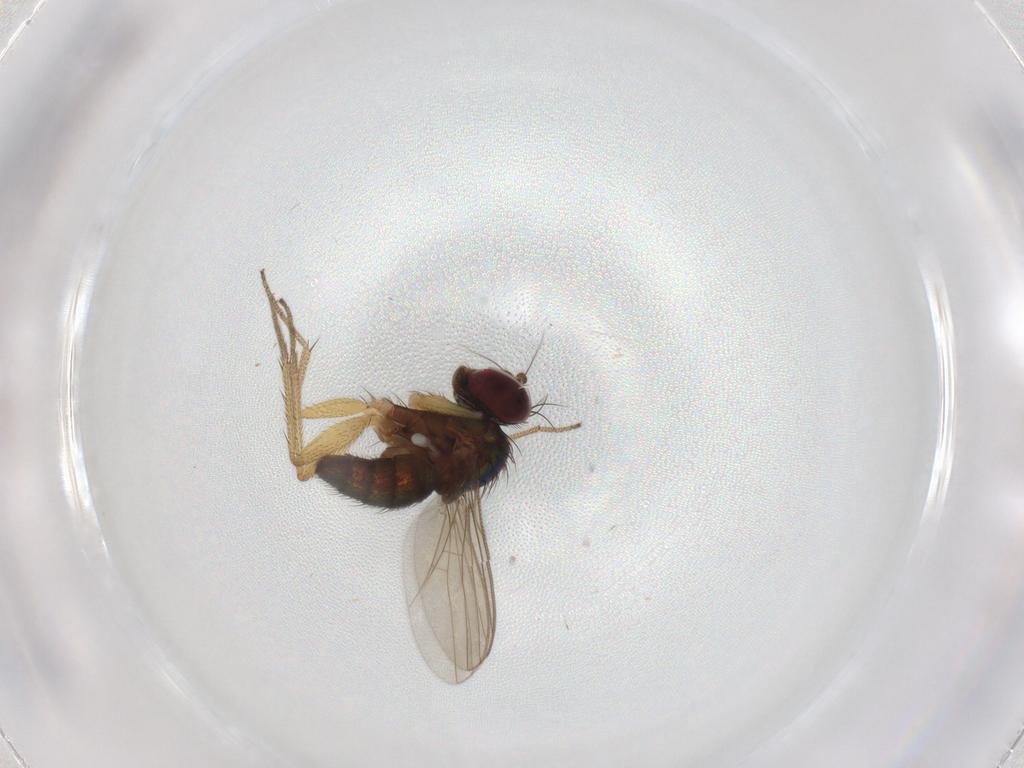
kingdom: Animalia
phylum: Arthropoda
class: Insecta
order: Diptera
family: Dolichopodidae
